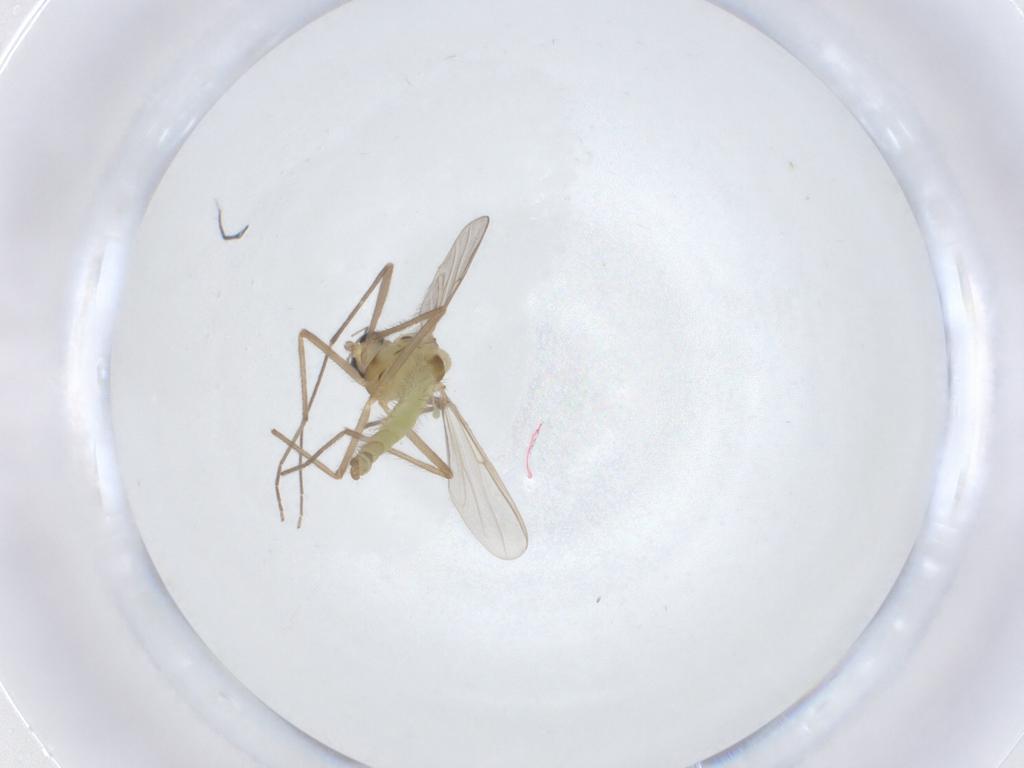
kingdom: Animalia
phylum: Arthropoda
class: Insecta
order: Diptera
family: Chironomidae
